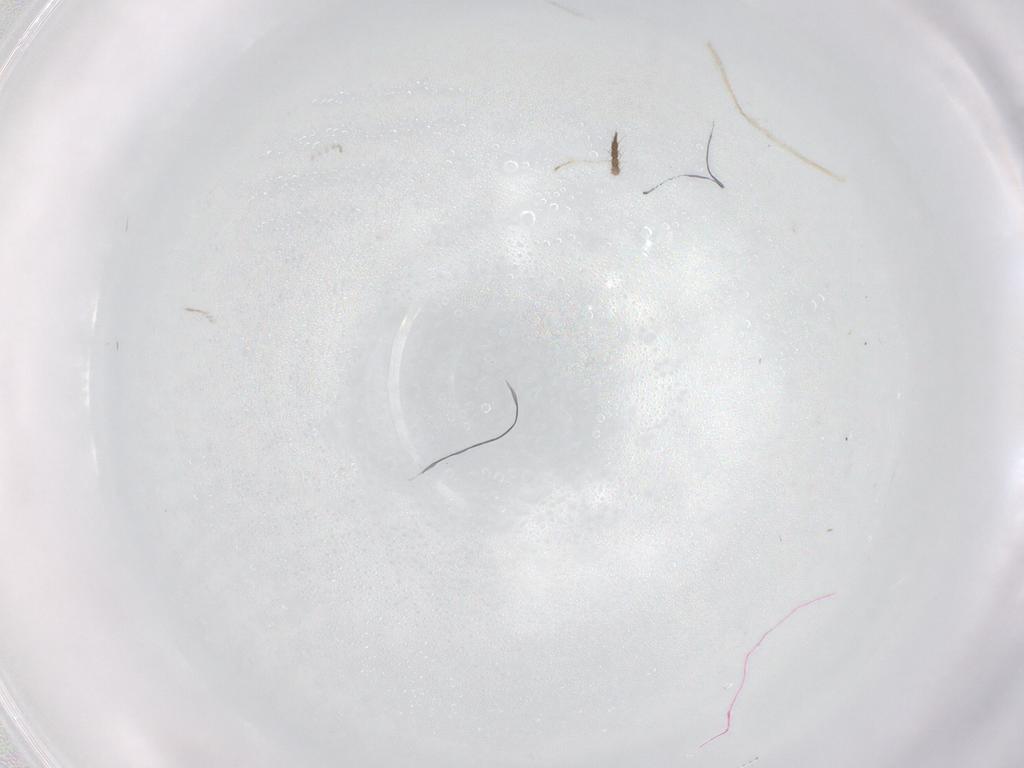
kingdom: Animalia
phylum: Arthropoda
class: Insecta
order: Diptera
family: Limoniidae
